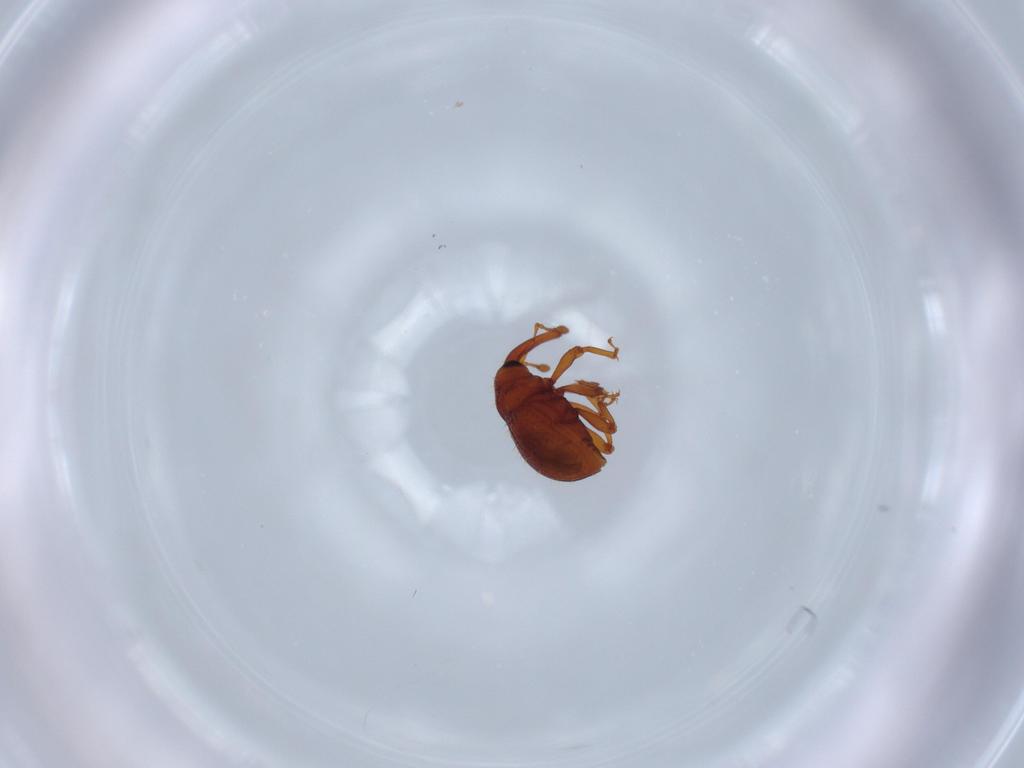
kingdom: Animalia
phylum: Arthropoda
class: Insecta
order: Coleoptera
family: Curculionidae
